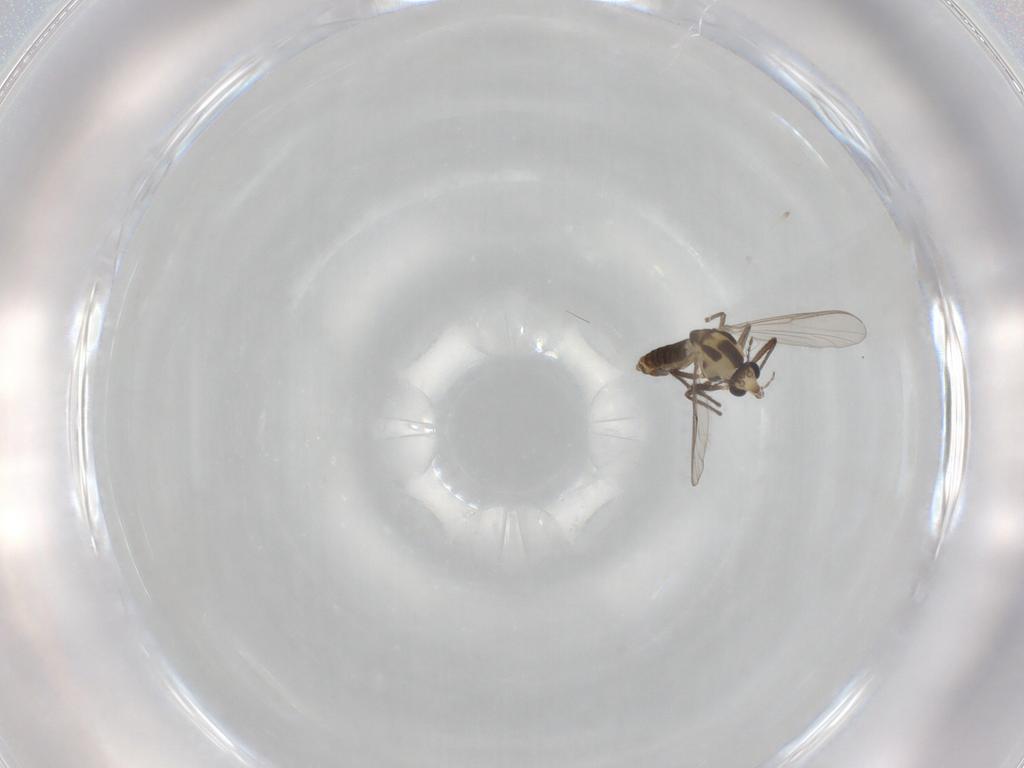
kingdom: Animalia
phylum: Arthropoda
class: Insecta
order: Diptera
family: Chironomidae
